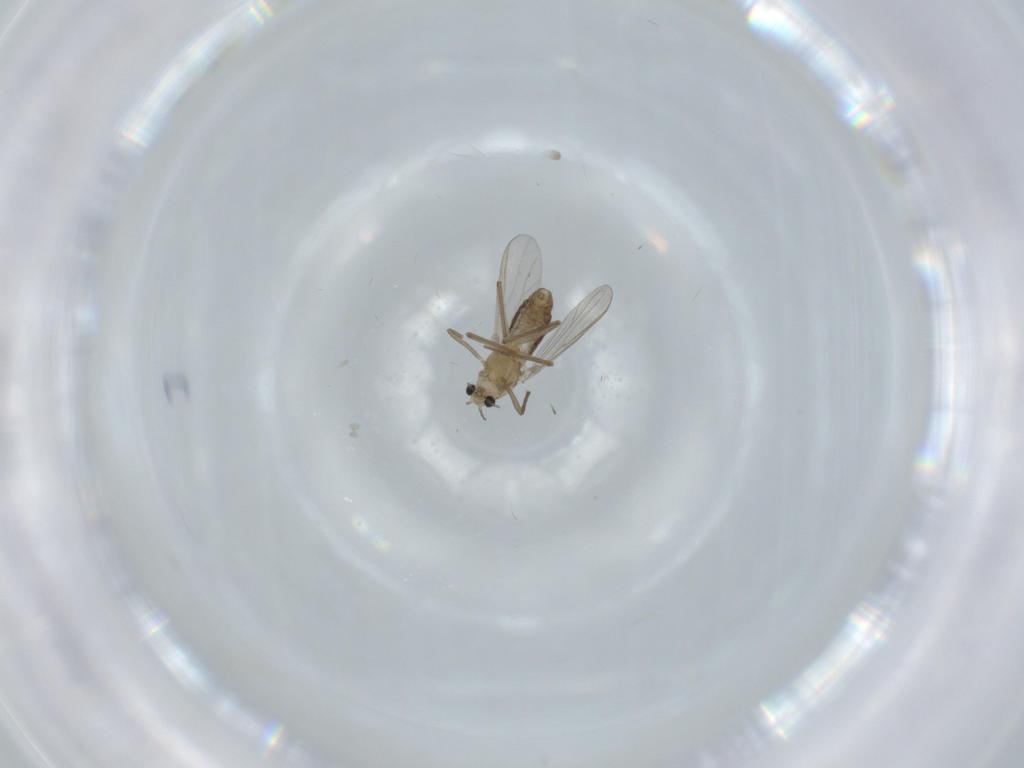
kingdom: Animalia
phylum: Arthropoda
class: Insecta
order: Diptera
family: Chironomidae
